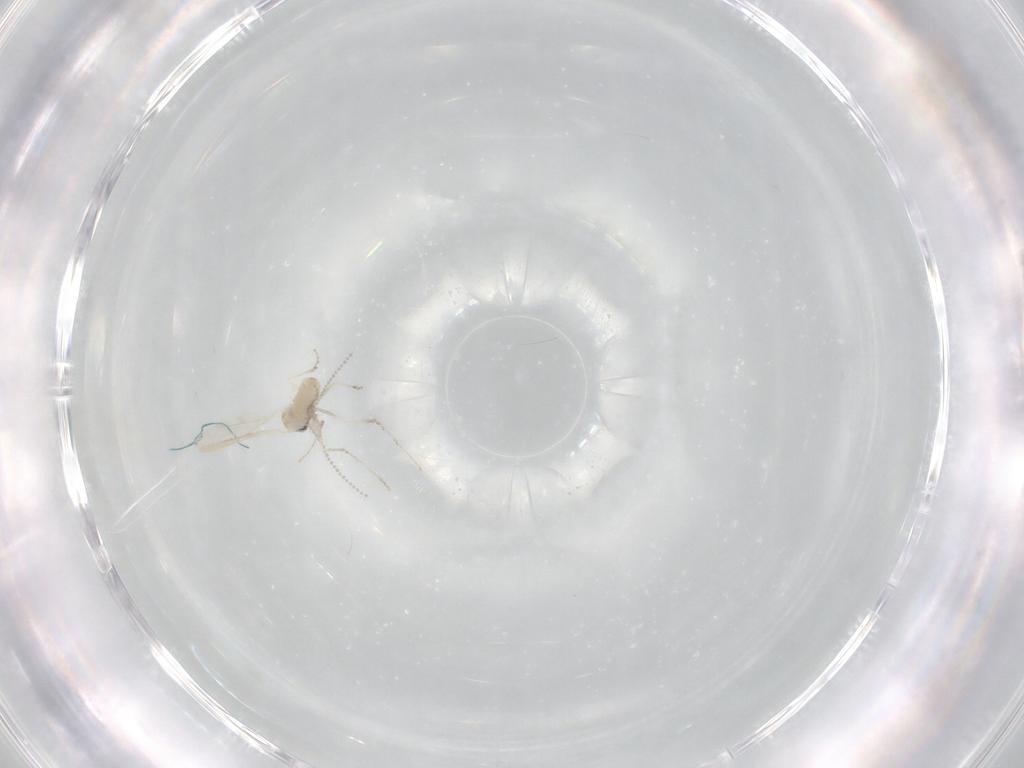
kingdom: Animalia
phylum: Arthropoda
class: Insecta
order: Diptera
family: Cecidomyiidae
